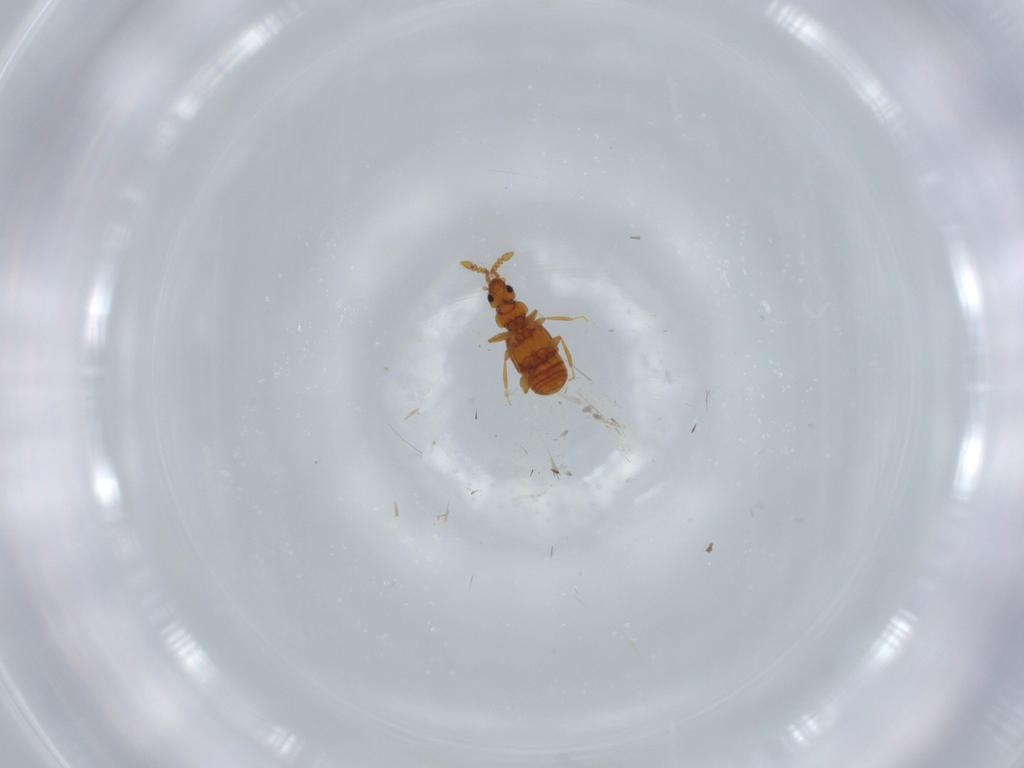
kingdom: Animalia
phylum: Arthropoda
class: Insecta
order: Coleoptera
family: Staphylinidae
